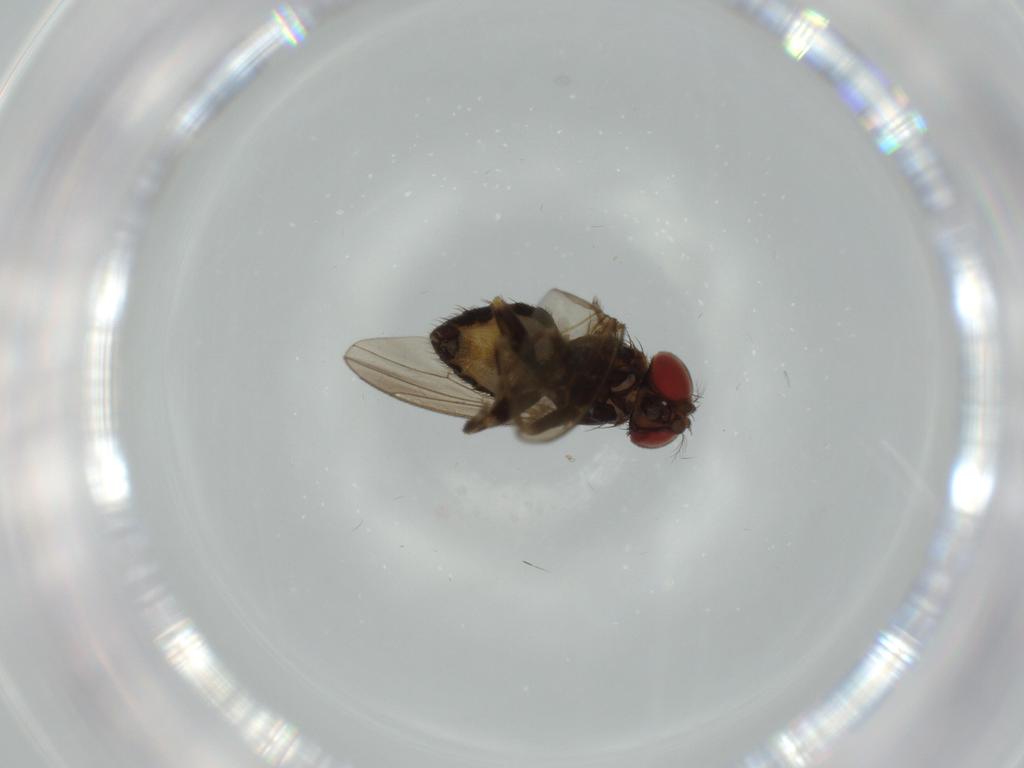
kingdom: Animalia
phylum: Arthropoda
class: Insecta
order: Diptera
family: Drosophilidae
